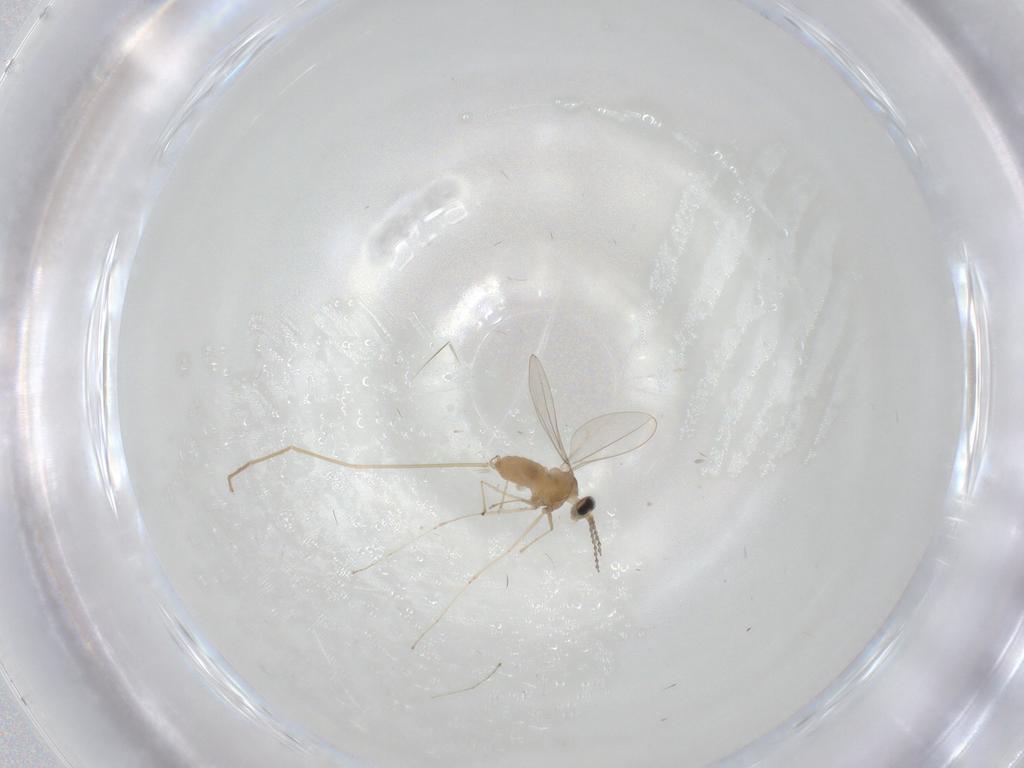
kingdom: Animalia
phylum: Arthropoda
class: Insecta
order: Diptera
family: Cecidomyiidae
